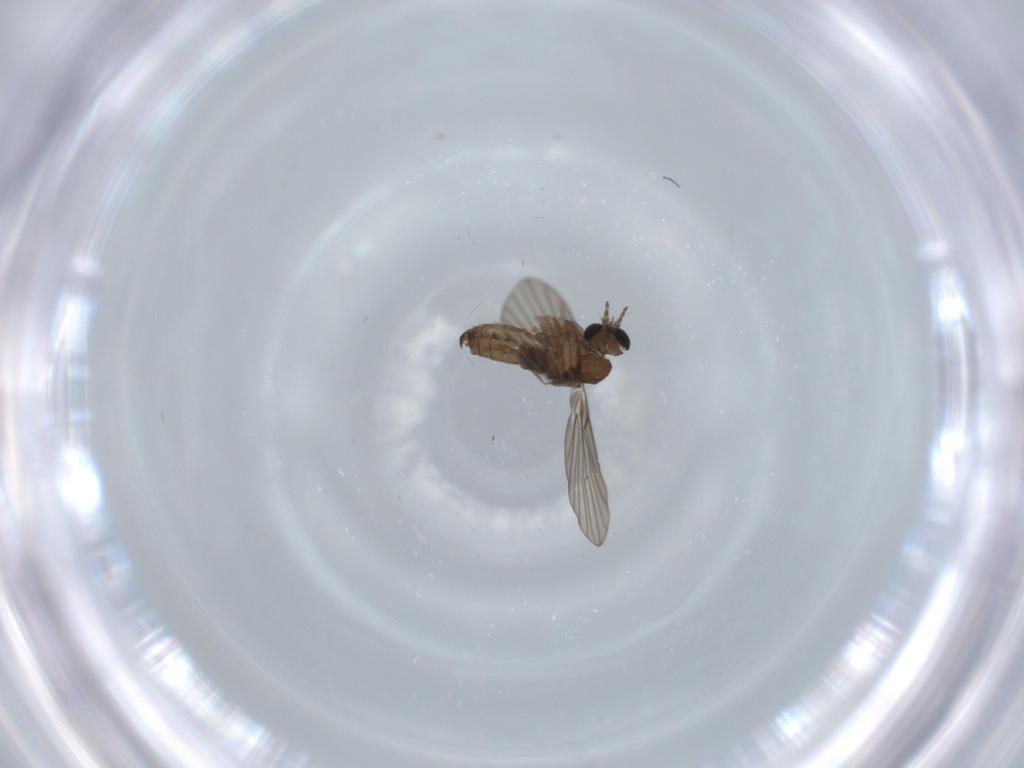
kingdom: Animalia
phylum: Arthropoda
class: Insecta
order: Diptera
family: Psychodidae
